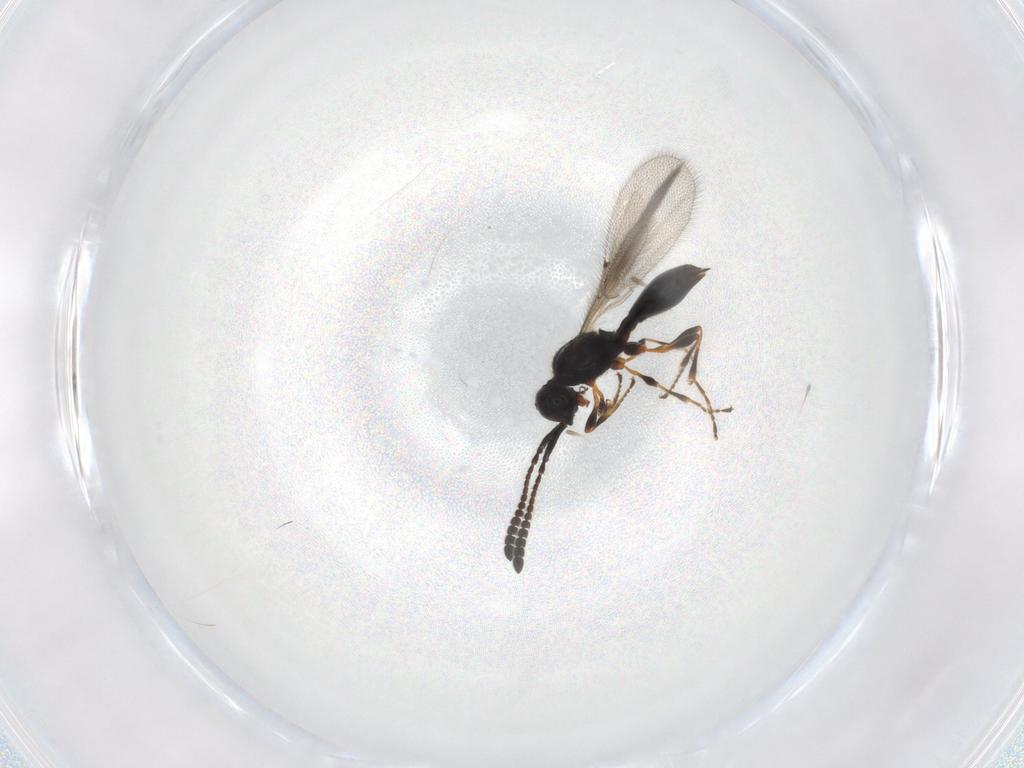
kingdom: Animalia
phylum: Arthropoda
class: Insecta
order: Hymenoptera
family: Diapriidae
